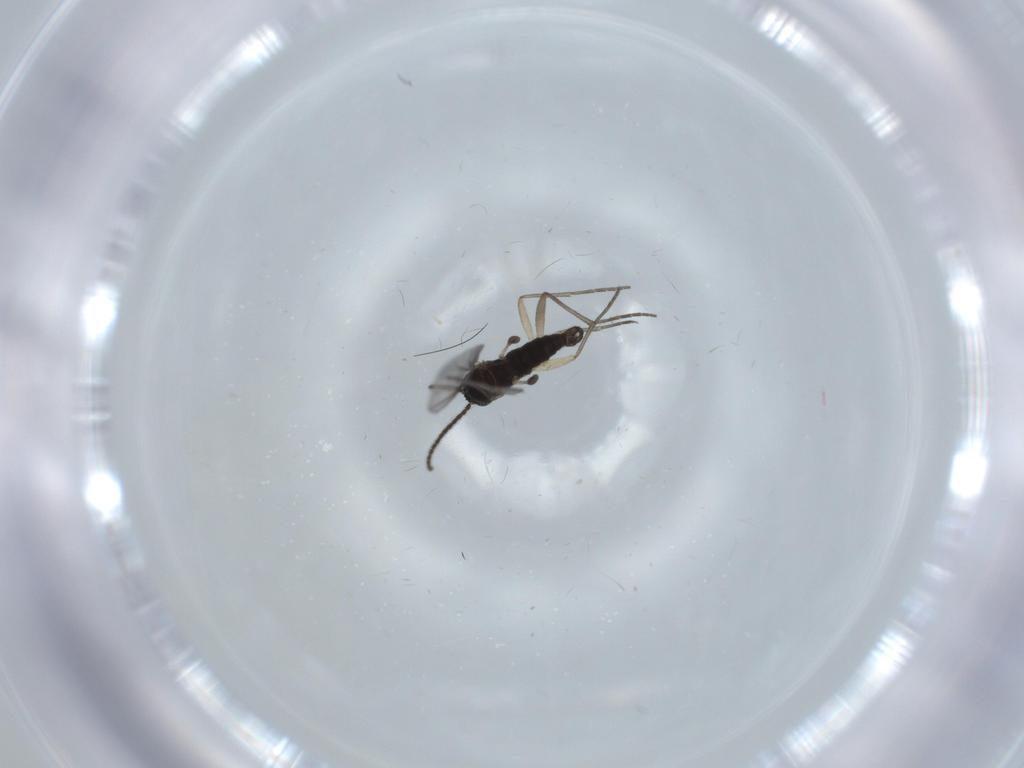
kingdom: Animalia
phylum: Arthropoda
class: Insecta
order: Diptera
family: Sciaridae
